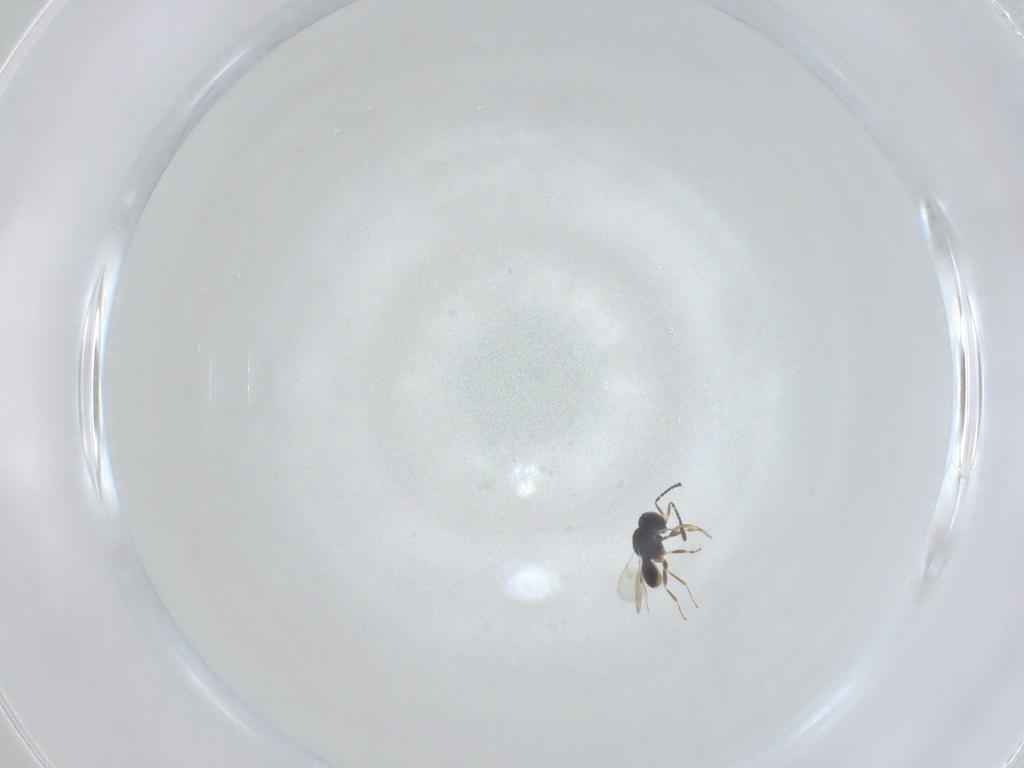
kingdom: Animalia
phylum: Arthropoda
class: Insecta
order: Hymenoptera
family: Scelionidae
